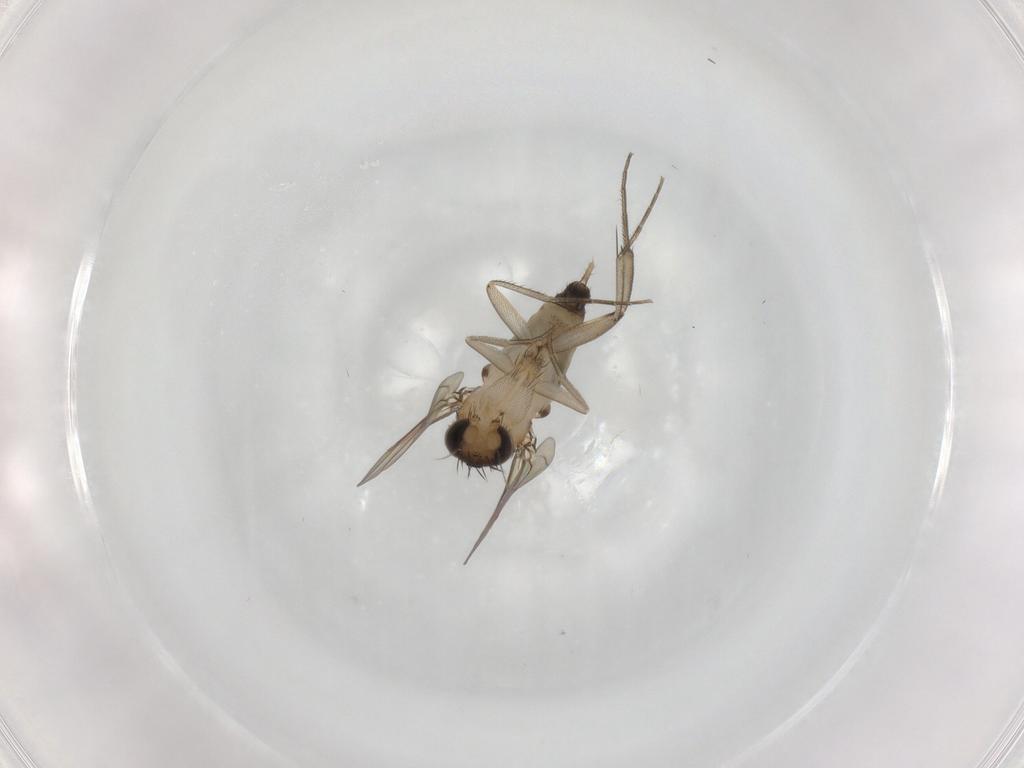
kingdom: Animalia
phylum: Arthropoda
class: Insecta
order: Diptera
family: Phoridae
